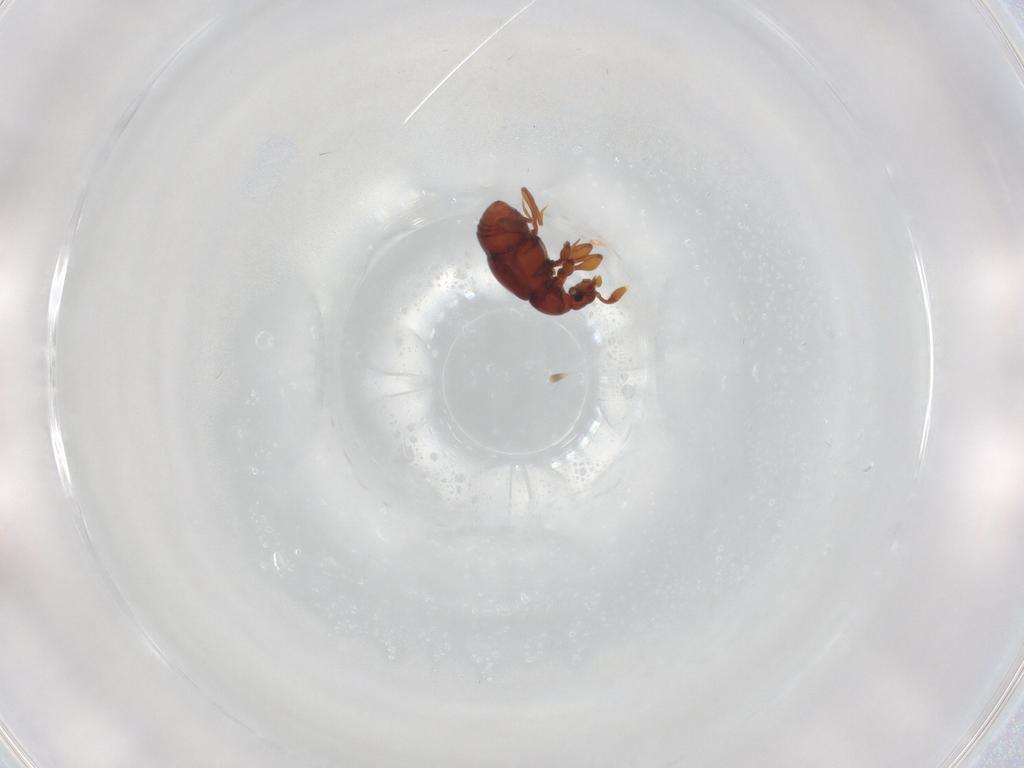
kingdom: Animalia
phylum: Arthropoda
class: Insecta
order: Coleoptera
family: Staphylinidae
